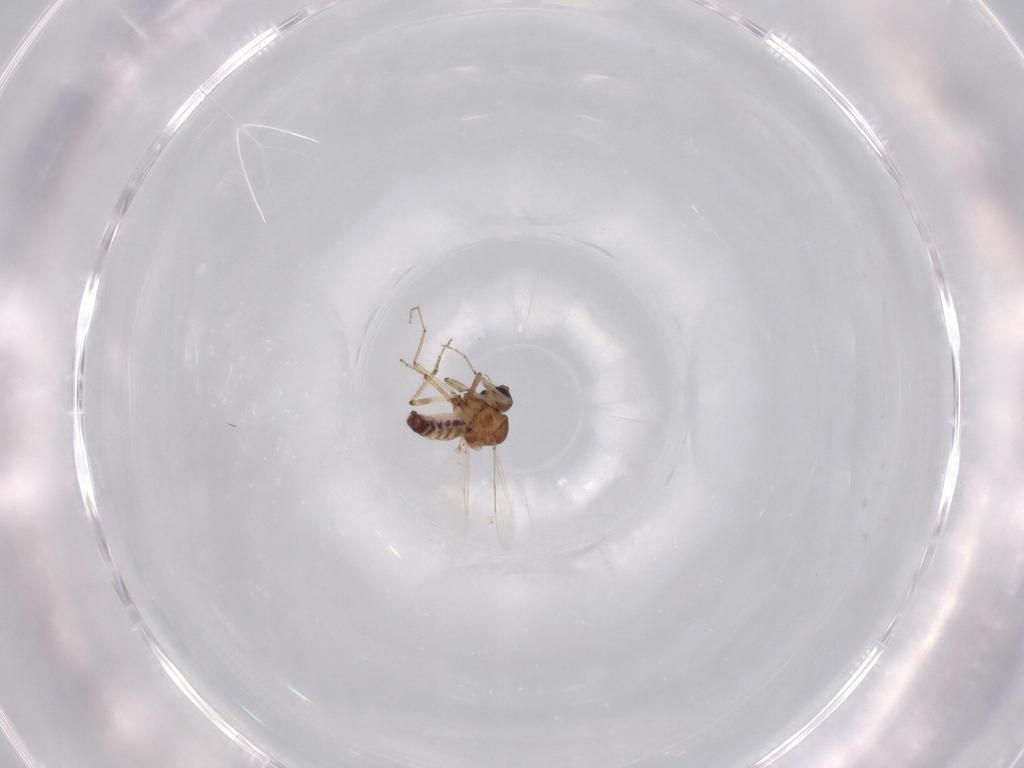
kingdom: Animalia
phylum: Arthropoda
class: Insecta
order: Diptera
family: Ceratopogonidae
